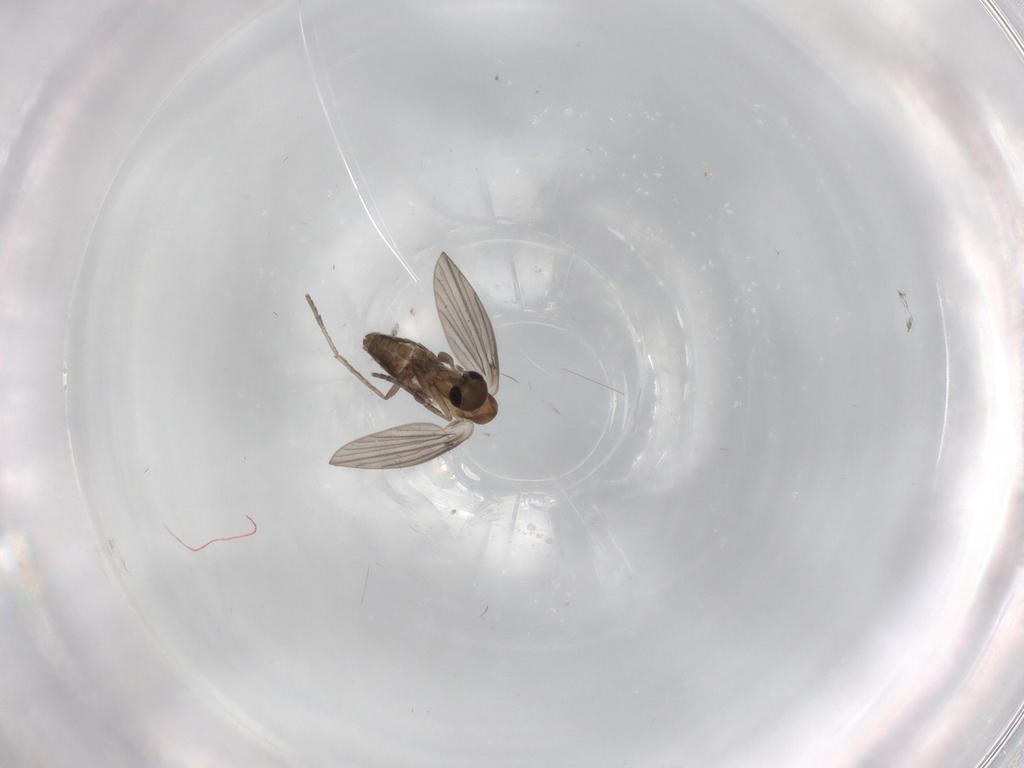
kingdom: Animalia
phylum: Arthropoda
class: Insecta
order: Diptera
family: Psychodidae
